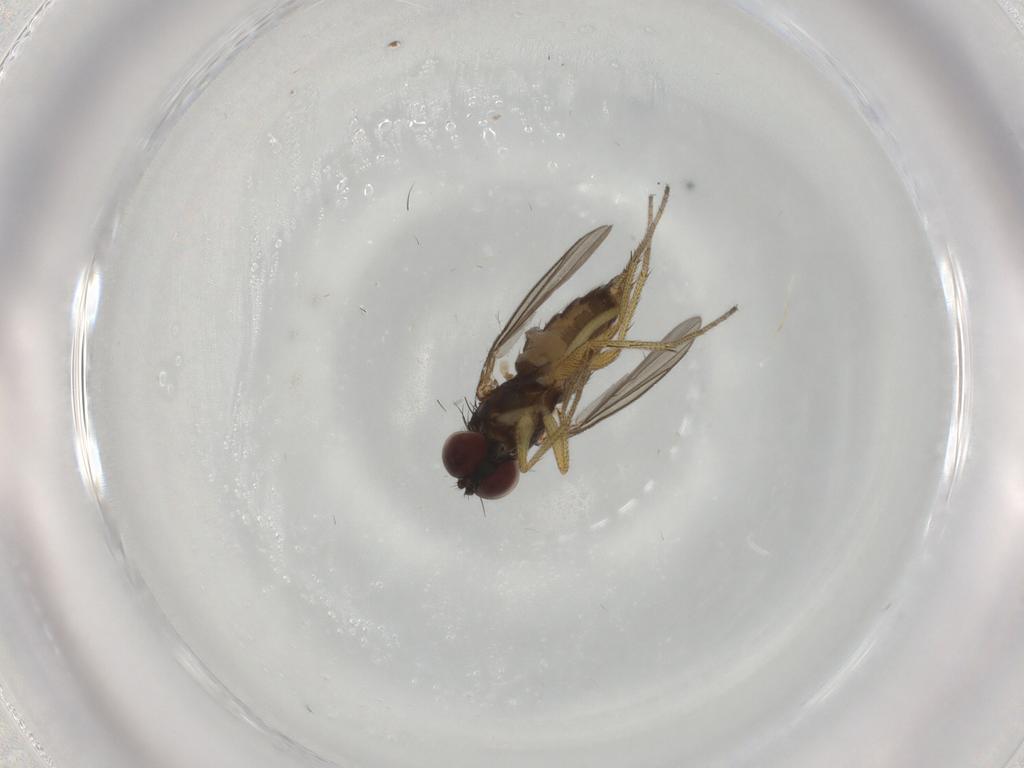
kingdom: Animalia
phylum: Arthropoda
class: Insecta
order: Diptera
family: Dolichopodidae
